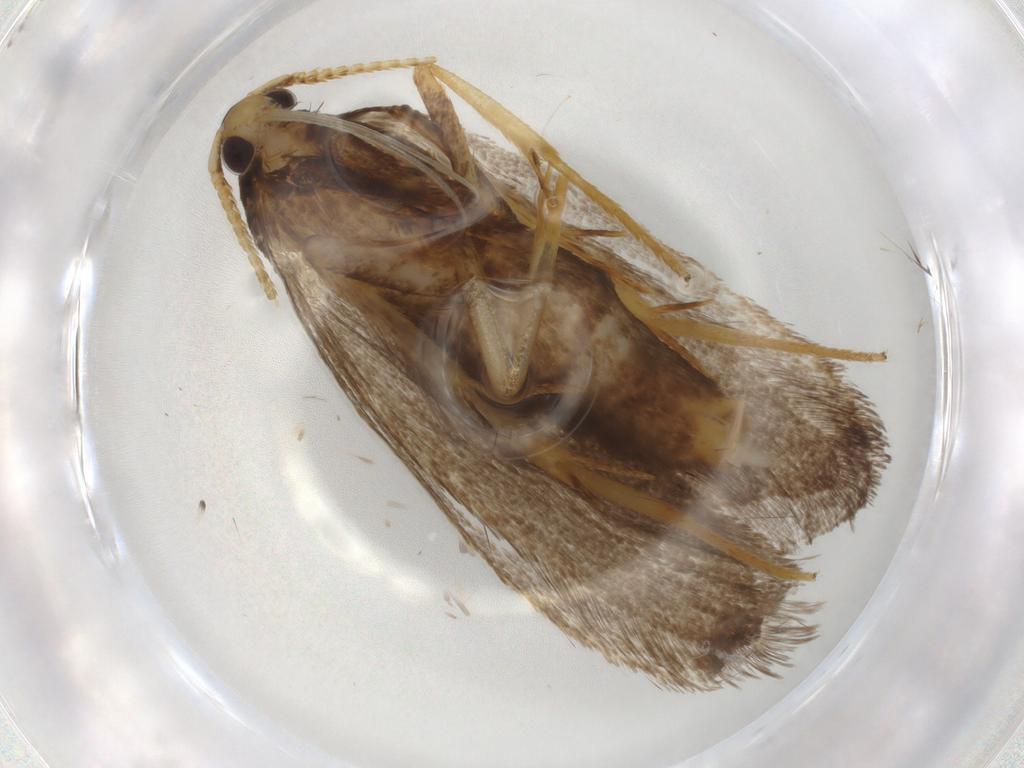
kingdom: Animalia
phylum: Arthropoda
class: Insecta
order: Lepidoptera
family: Lecithoceridae
